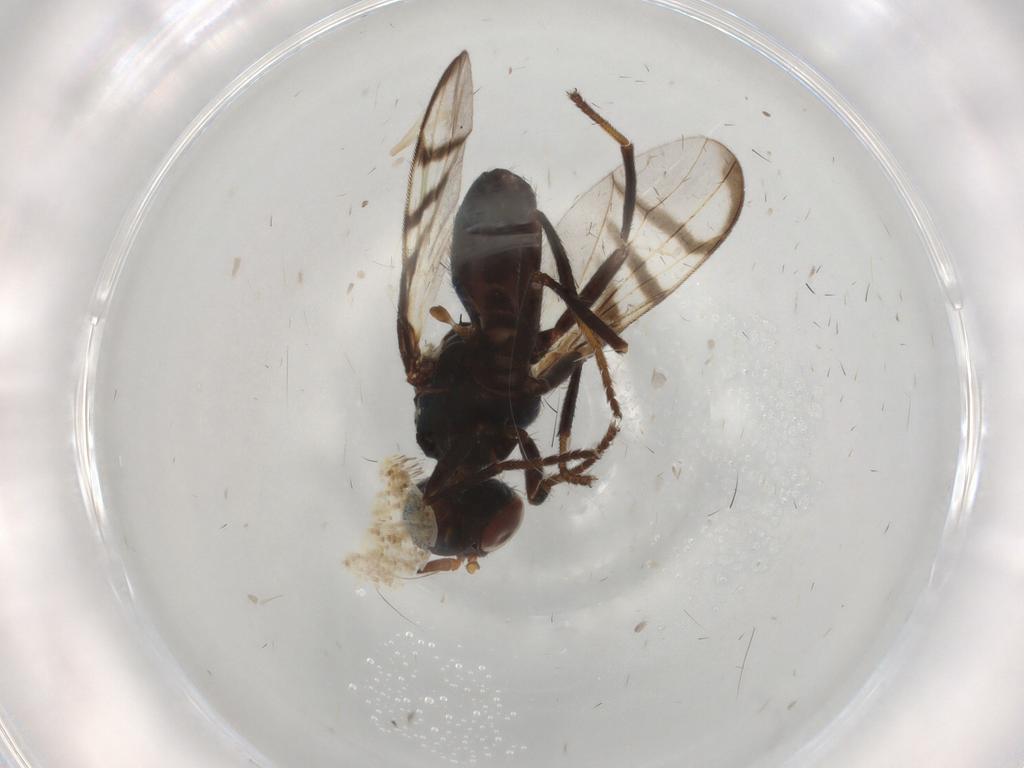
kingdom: Animalia
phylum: Arthropoda
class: Insecta
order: Diptera
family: Cecidomyiidae
